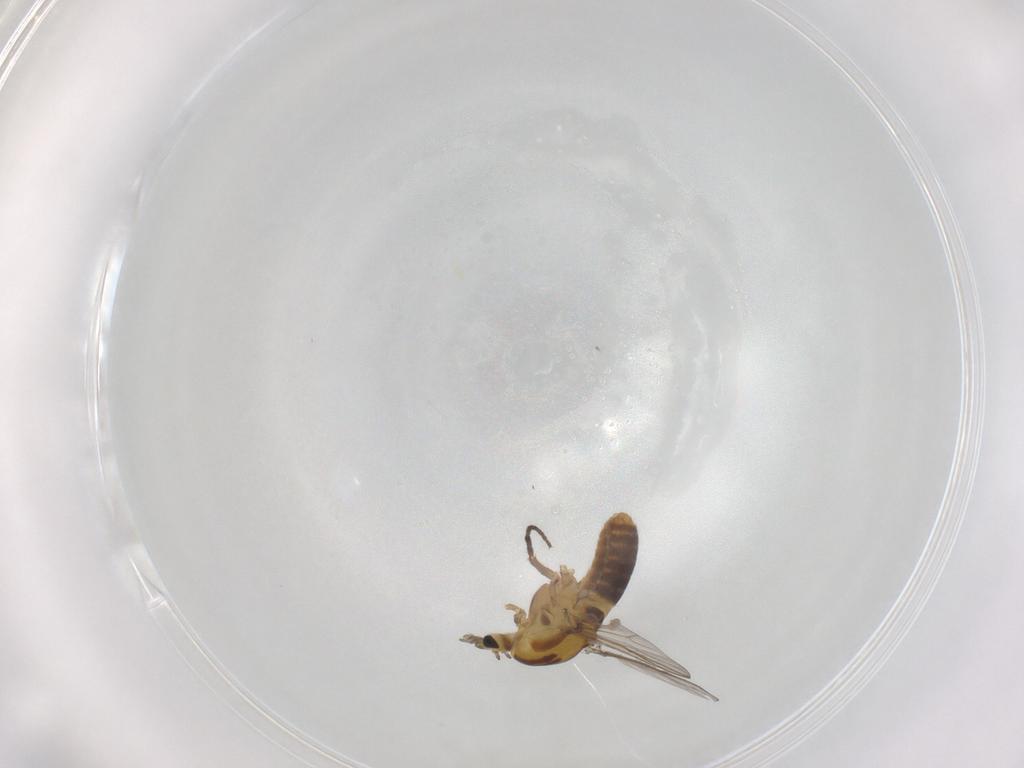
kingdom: Animalia
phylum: Arthropoda
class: Insecta
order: Diptera
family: Chironomidae
